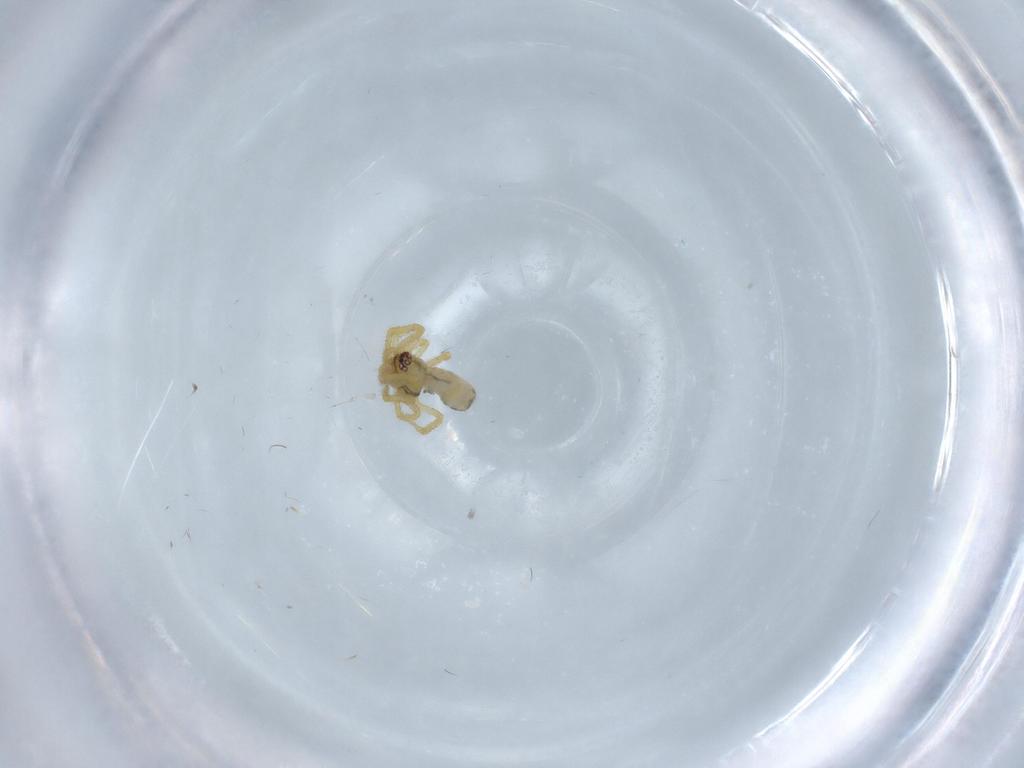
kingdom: Animalia
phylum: Arthropoda
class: Arachnida
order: Araneae
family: Theridiidae
